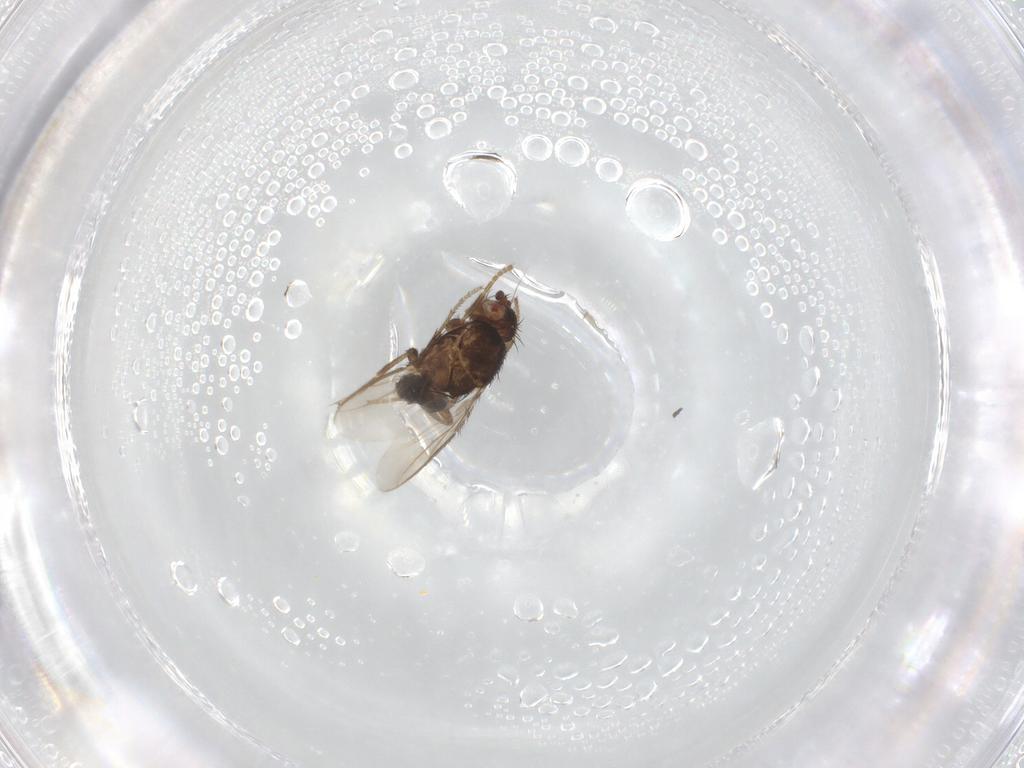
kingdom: Animalia
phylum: Arthropoda
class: Insecta
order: Diptera
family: Sphaeroceridae
